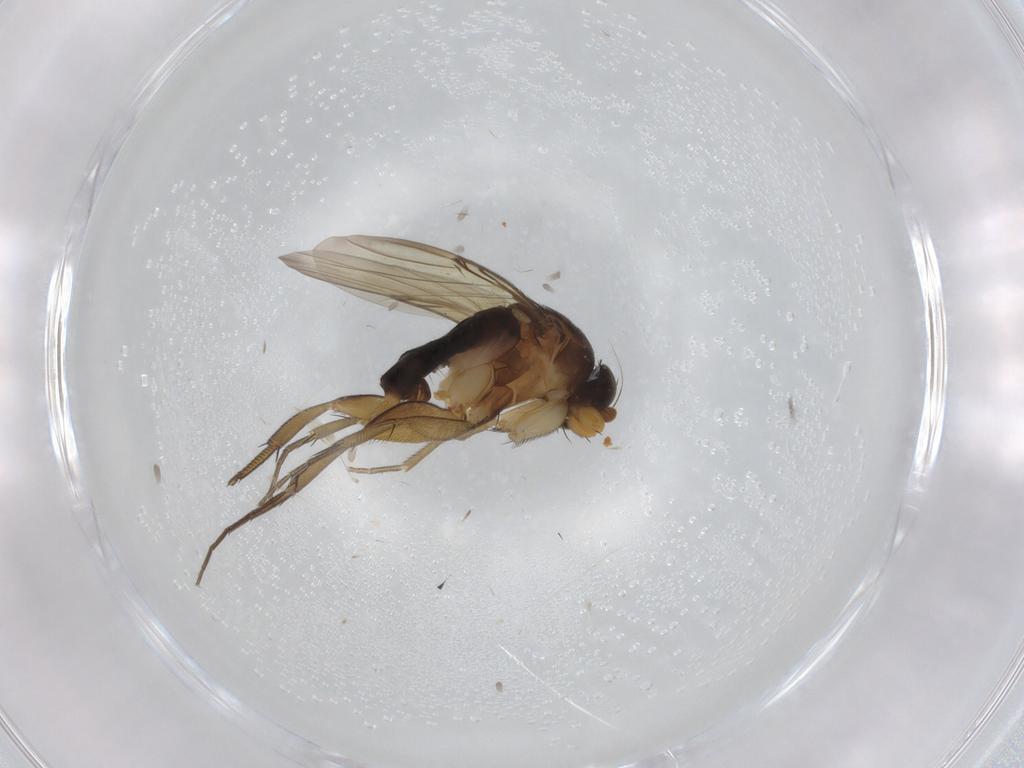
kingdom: Animalia
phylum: Arthropoda
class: Insecta
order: Diptera
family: Phoridae
